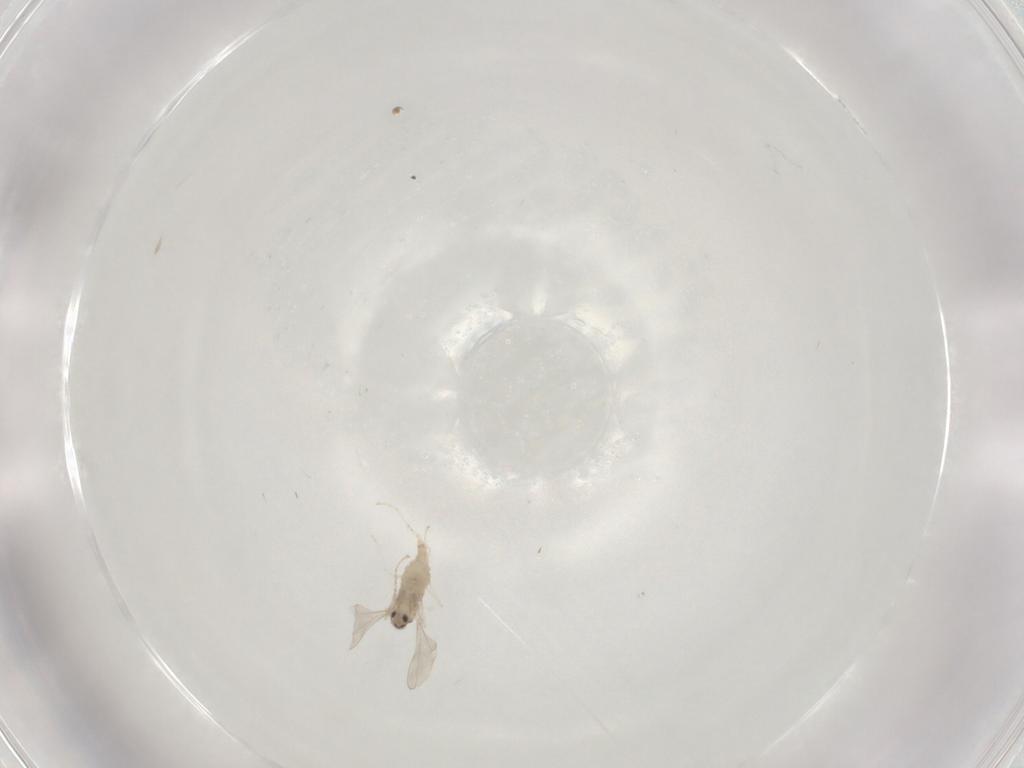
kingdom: Animalia
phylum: Arthropoda
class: Insecta
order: Diptera
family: Cecidomyiidae
